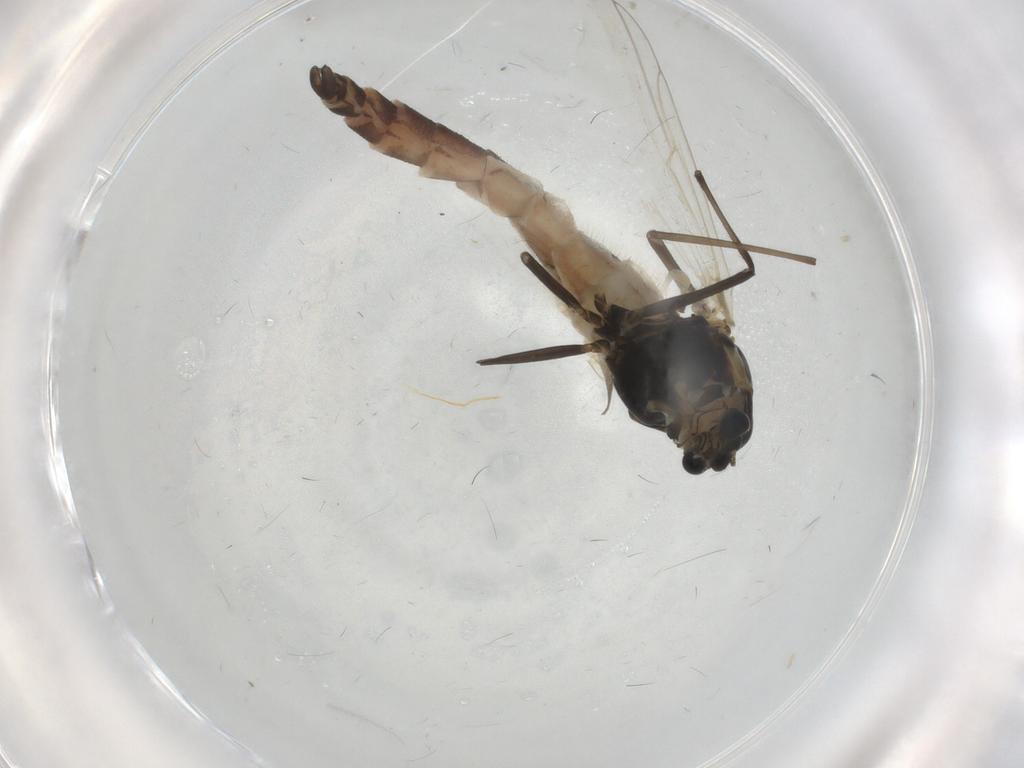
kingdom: Animalia
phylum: Arthropoda
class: Insecta
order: Diptera
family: Chironomidae
